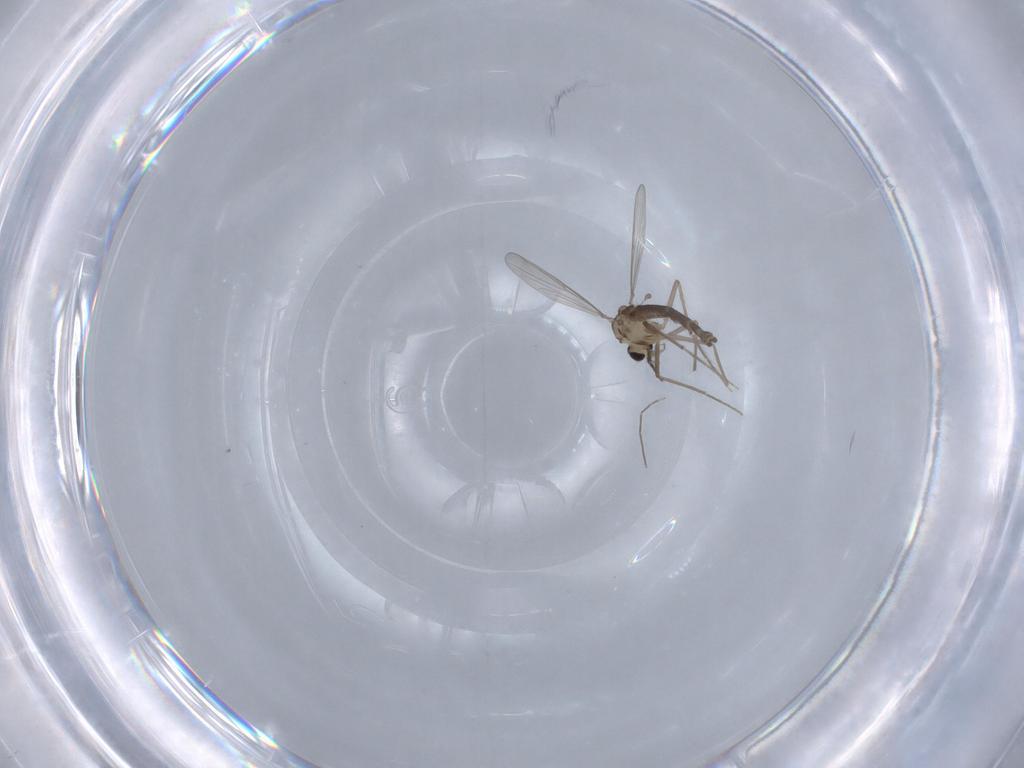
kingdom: Animalia
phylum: Arthropoda
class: Insecta
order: Diptera
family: Chironomidae
